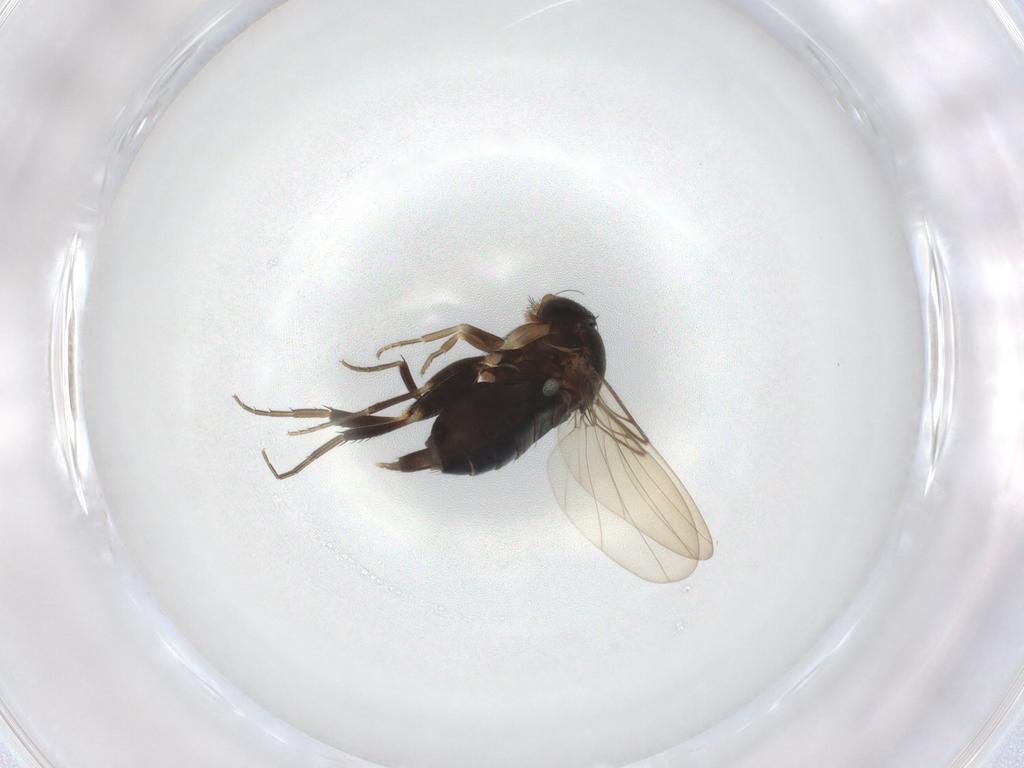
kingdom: Animalia
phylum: Arthropoda
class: Insecta
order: Diptera
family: Phoridae
